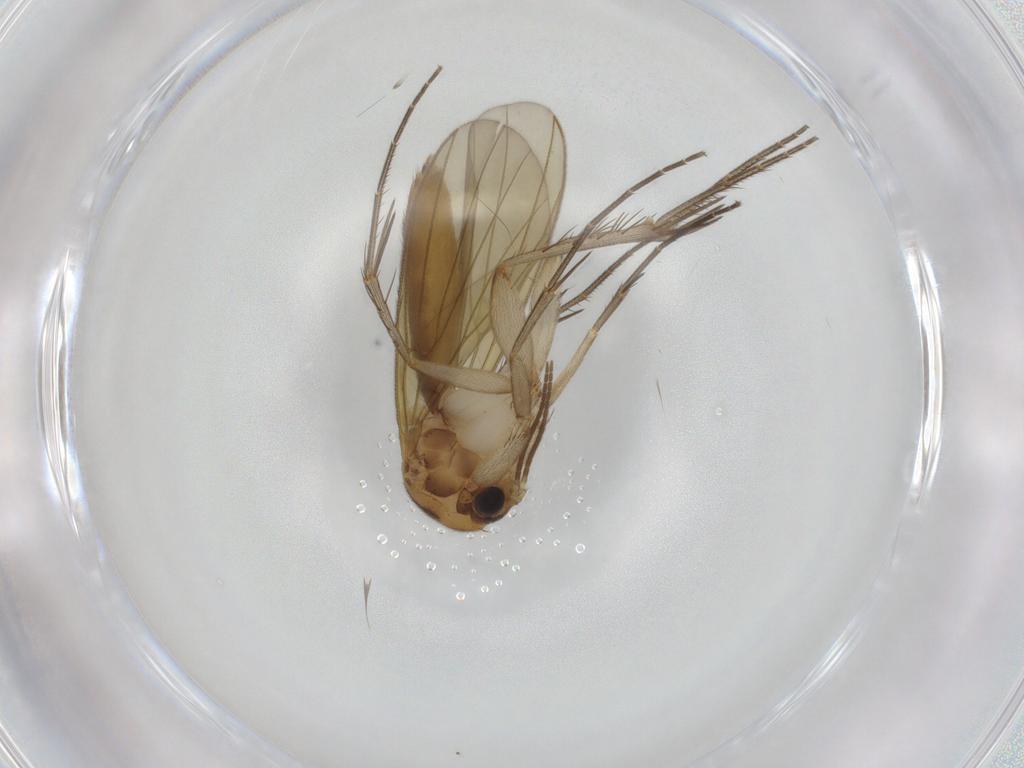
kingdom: Animalia
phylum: Arthropoda
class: Insecta
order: Diptera
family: Mycetophilidae
